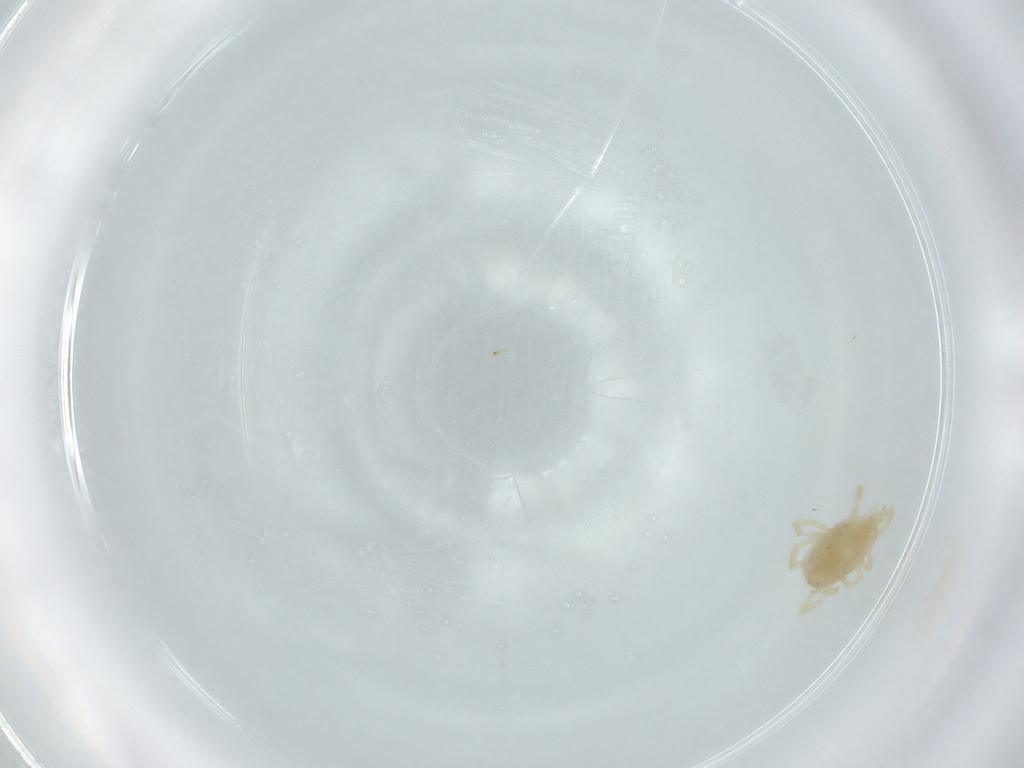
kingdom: Animalia
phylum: Arthropoda
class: Arachnida
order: Trombidiformes
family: Erythraeidae
